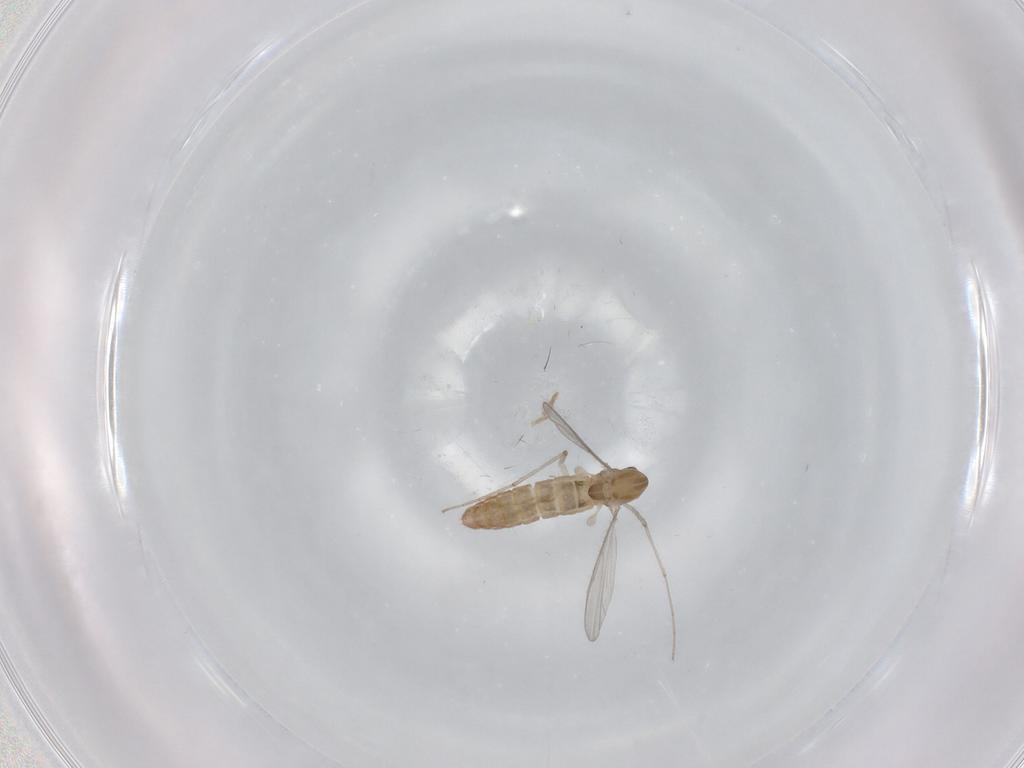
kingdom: Animalia
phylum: Arthropoda
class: Insecta
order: Diptera
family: Chironomidae
